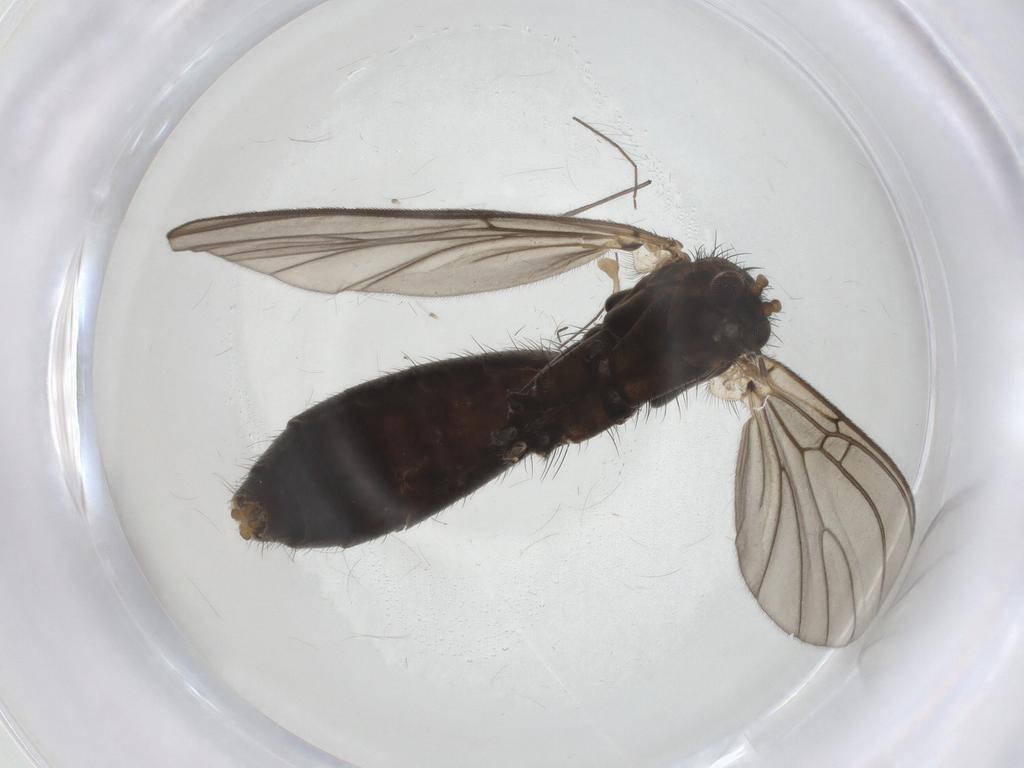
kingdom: Animalia
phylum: Arthropoda
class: Insecta
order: Diptera
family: Mycetophilidae
